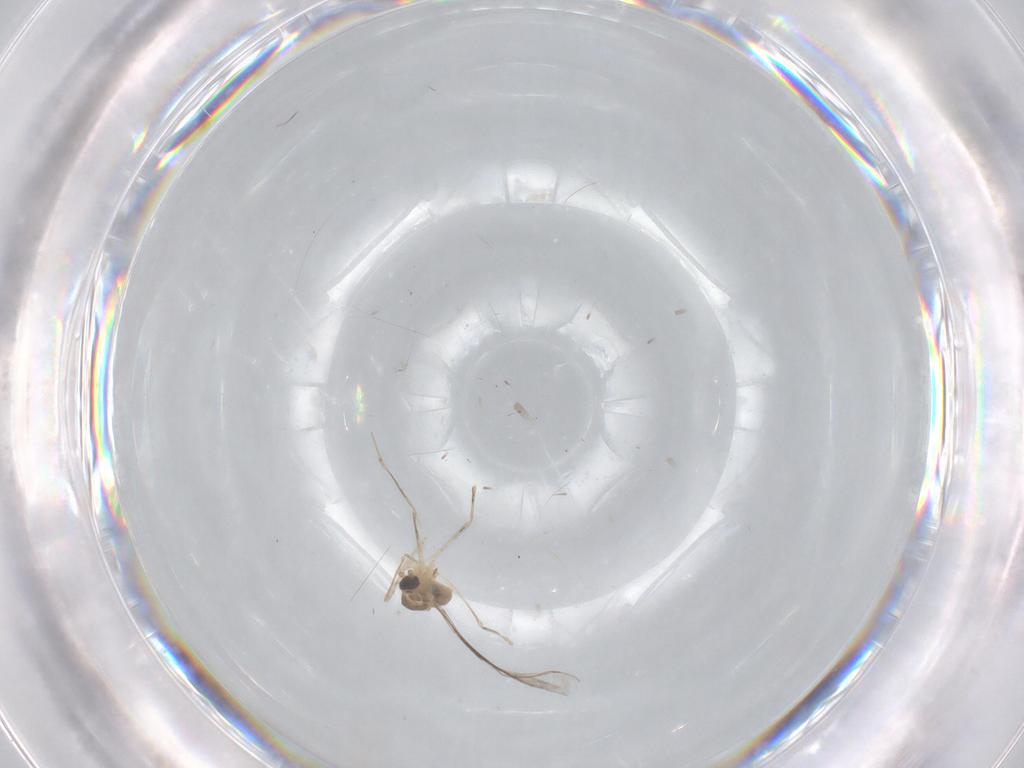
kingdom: Animalia
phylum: Arthropoda
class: Insecta
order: Diptera
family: Cecidomyiidae
